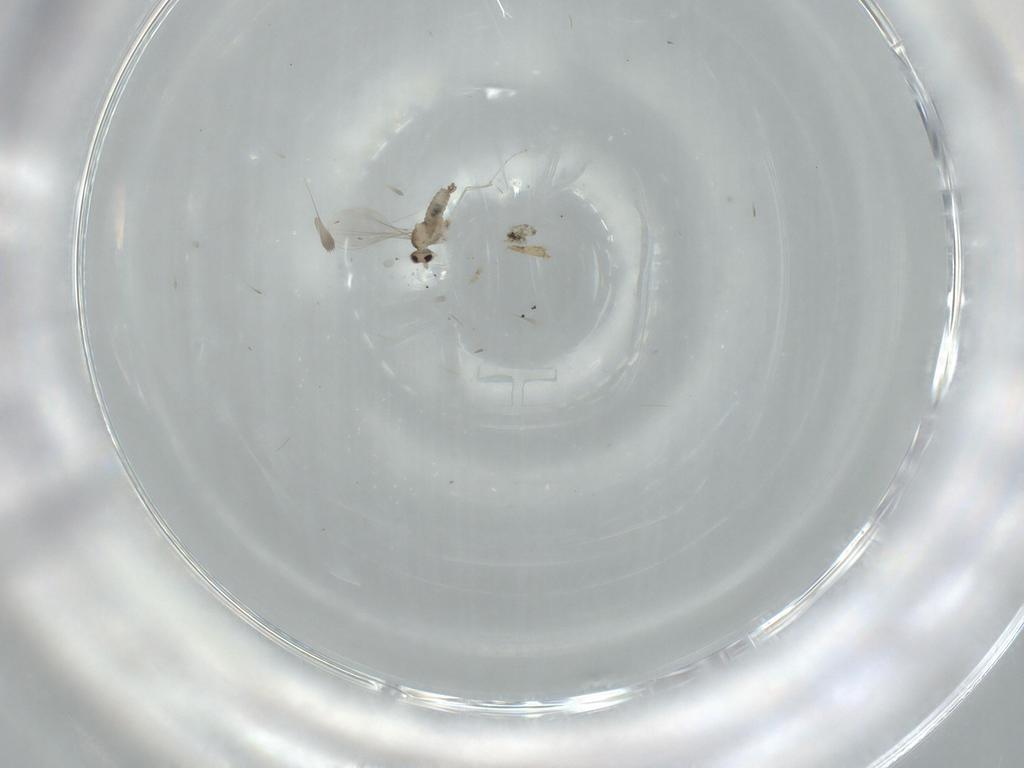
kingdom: Animalia
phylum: Arthropoda
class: Insecta
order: Diptera
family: Cecidomyiidae
